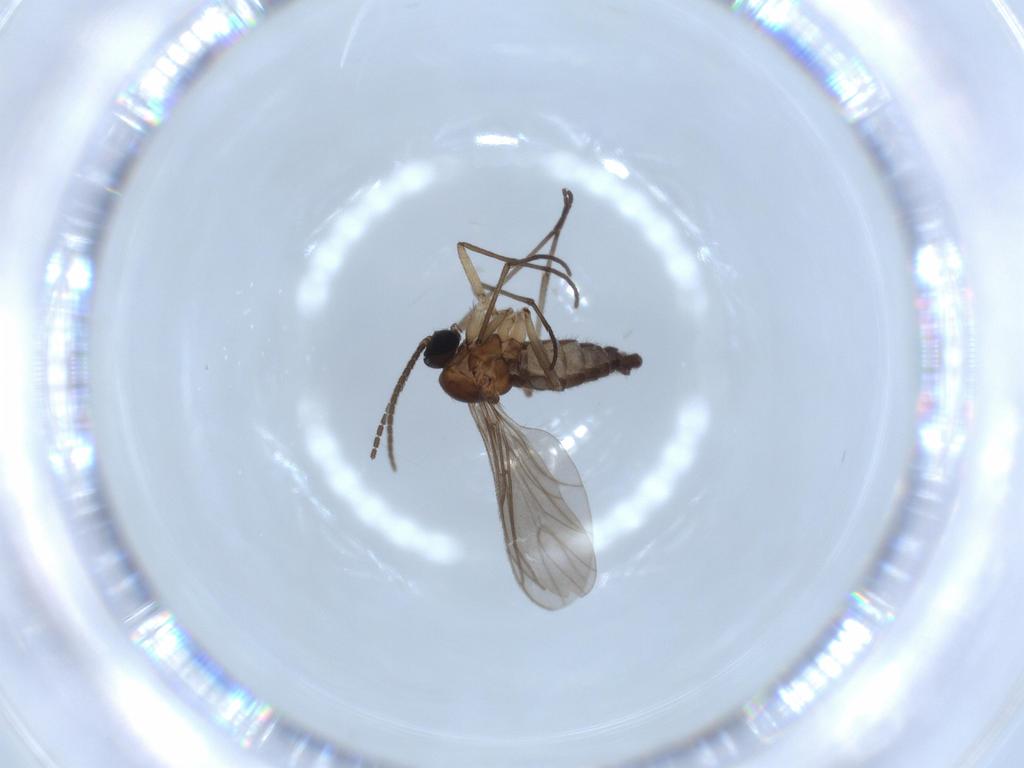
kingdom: Animalia
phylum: Arthropoda
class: Insecta
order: Diptera
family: Sciaridae
